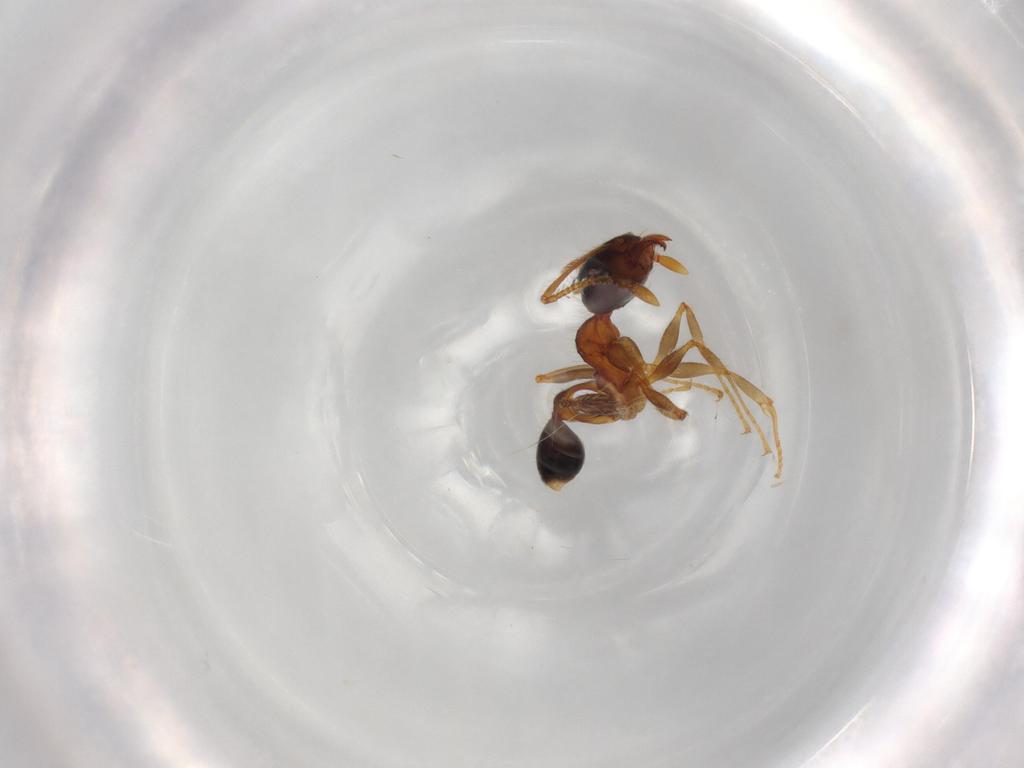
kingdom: Animalia
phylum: Arthropoda
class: Insecta
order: Hymenoptera
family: Formicidae
